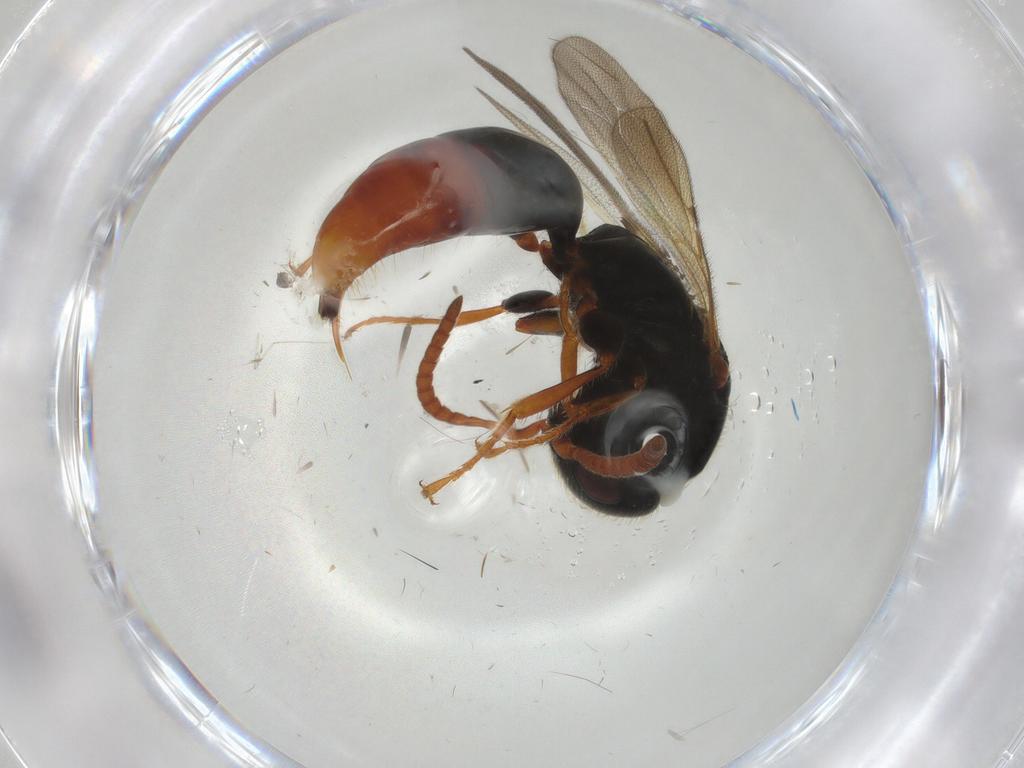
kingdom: Animalia
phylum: Arthropoda
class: Insecta
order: Hymenoptera
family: Bethylidae
